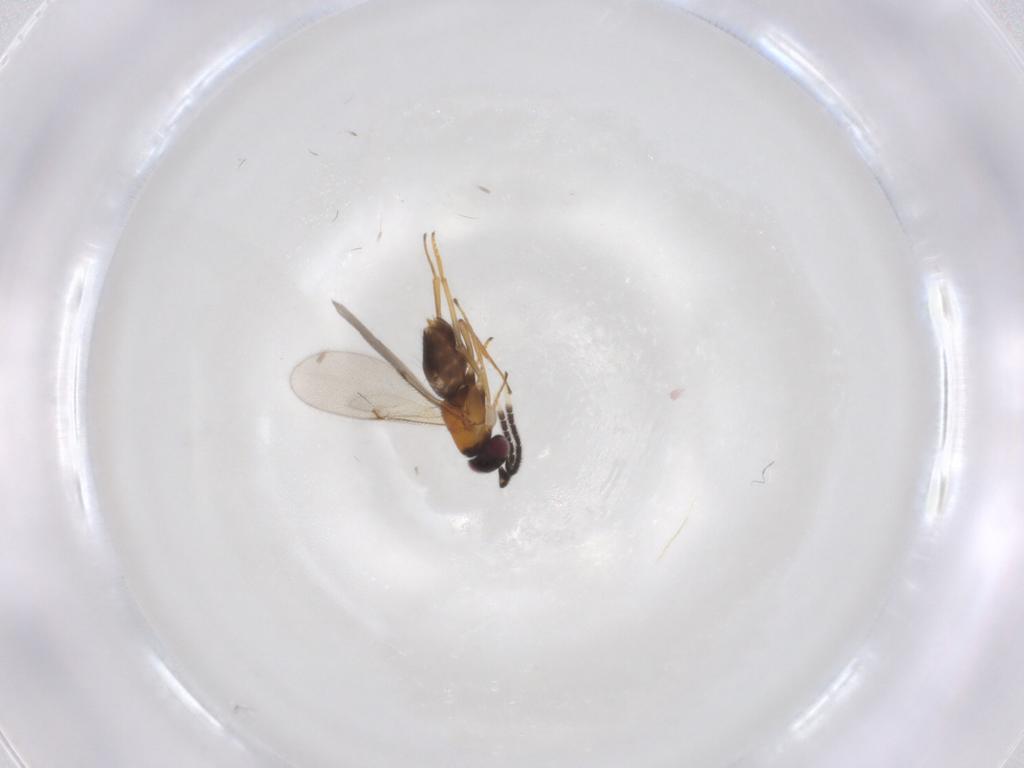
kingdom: Animalia
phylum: Arthropoda
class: Insecta
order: Hymenoptera
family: Encyrtidae
